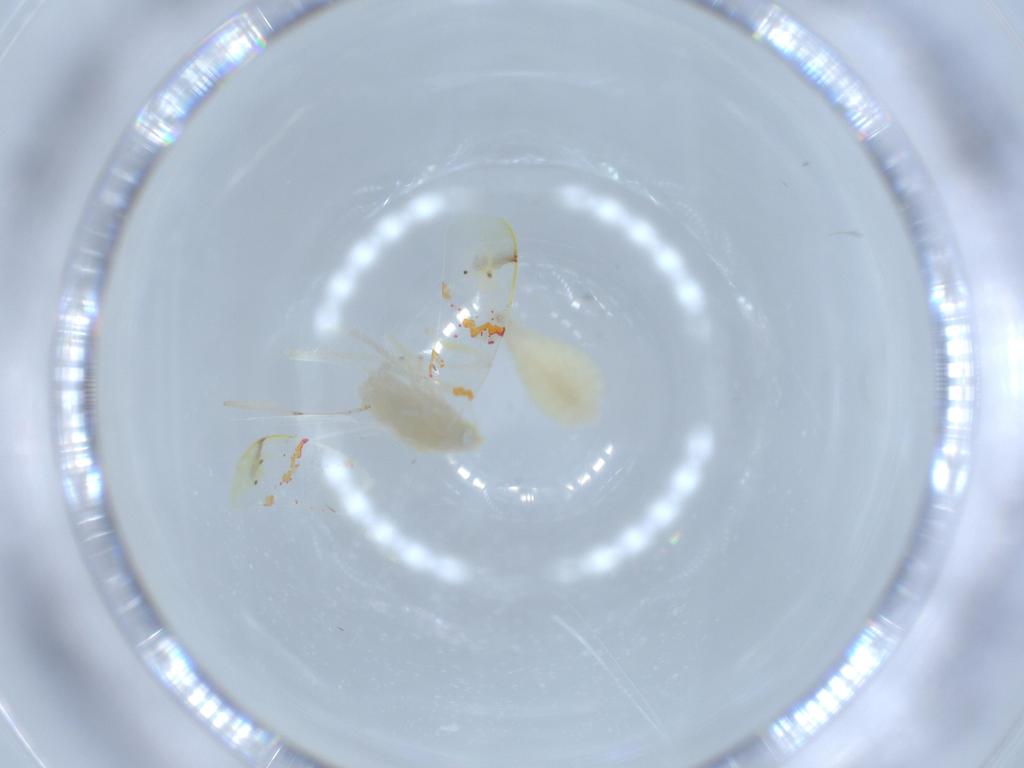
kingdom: Animalia
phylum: Arthropoda
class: Insecta
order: Hemiptera
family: Cicadellidae
